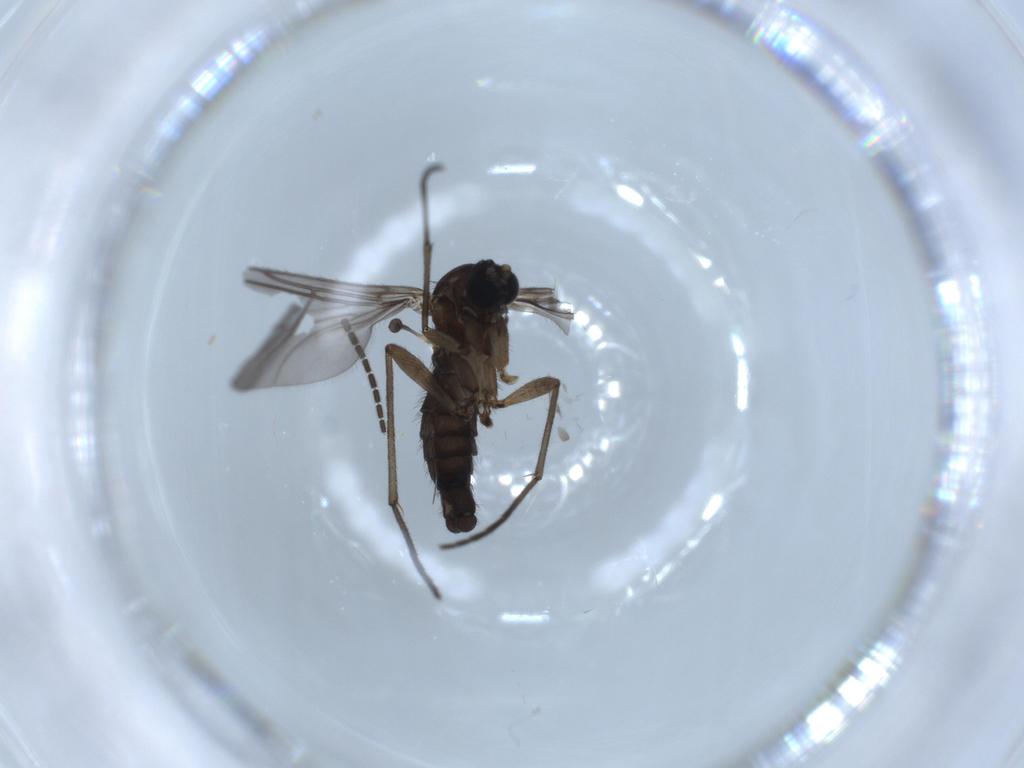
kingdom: Animalia
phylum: Arthropoda
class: Insecta
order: Diptera
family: Sciaridae
